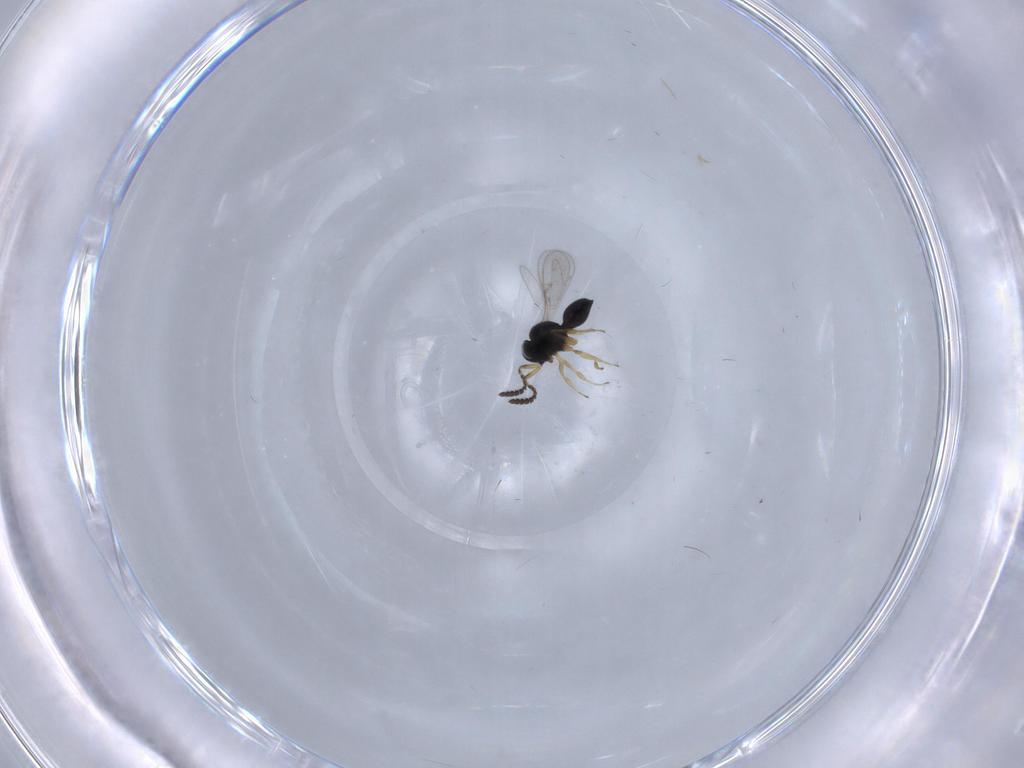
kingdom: Animalia
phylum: Arthropoda
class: Insecta
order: Hymenoptera
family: Scelionidae
